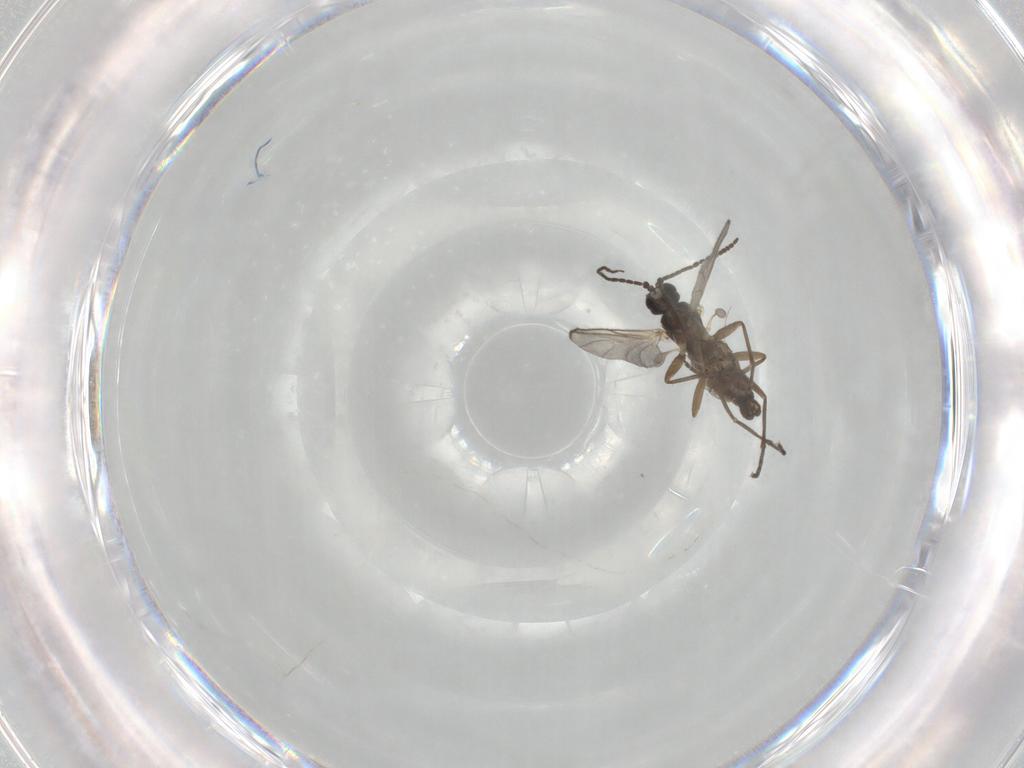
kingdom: Animalia
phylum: Arthropoda
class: Insecta
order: Diptera
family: Sciaridae
